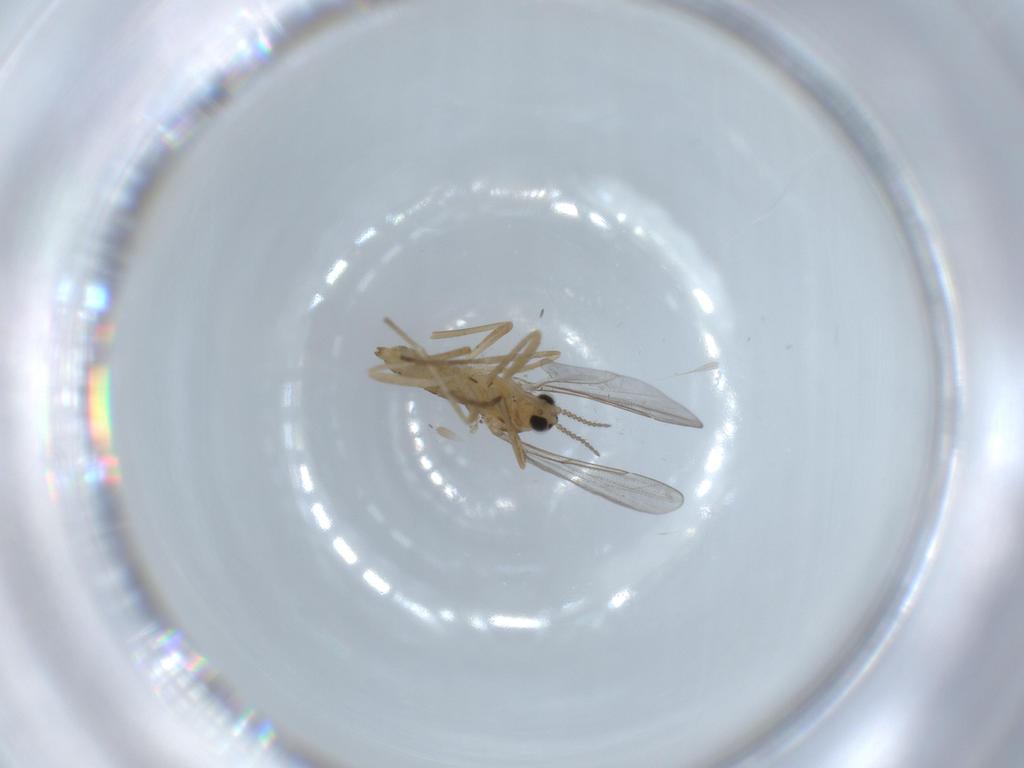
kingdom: Animalia
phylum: Arthropoda
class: Insecta
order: Diptera
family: Cecidomyiidae
